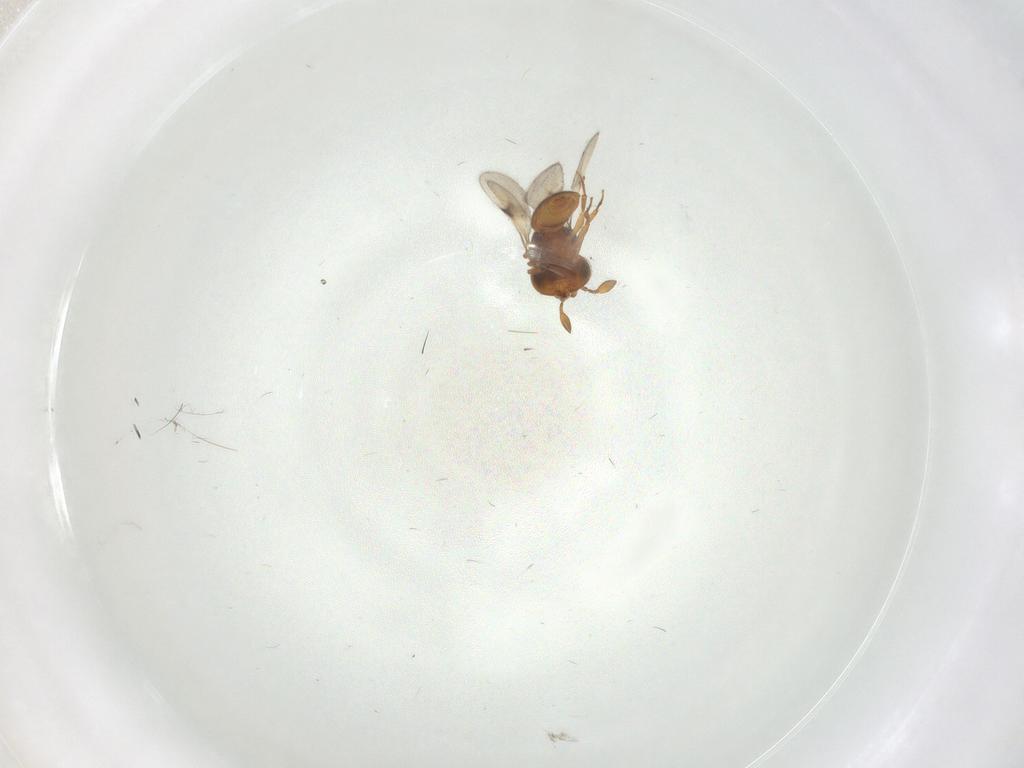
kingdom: Animalia
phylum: Arthropoda
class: Insecta
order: Hymenoptera
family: Scelionidae
